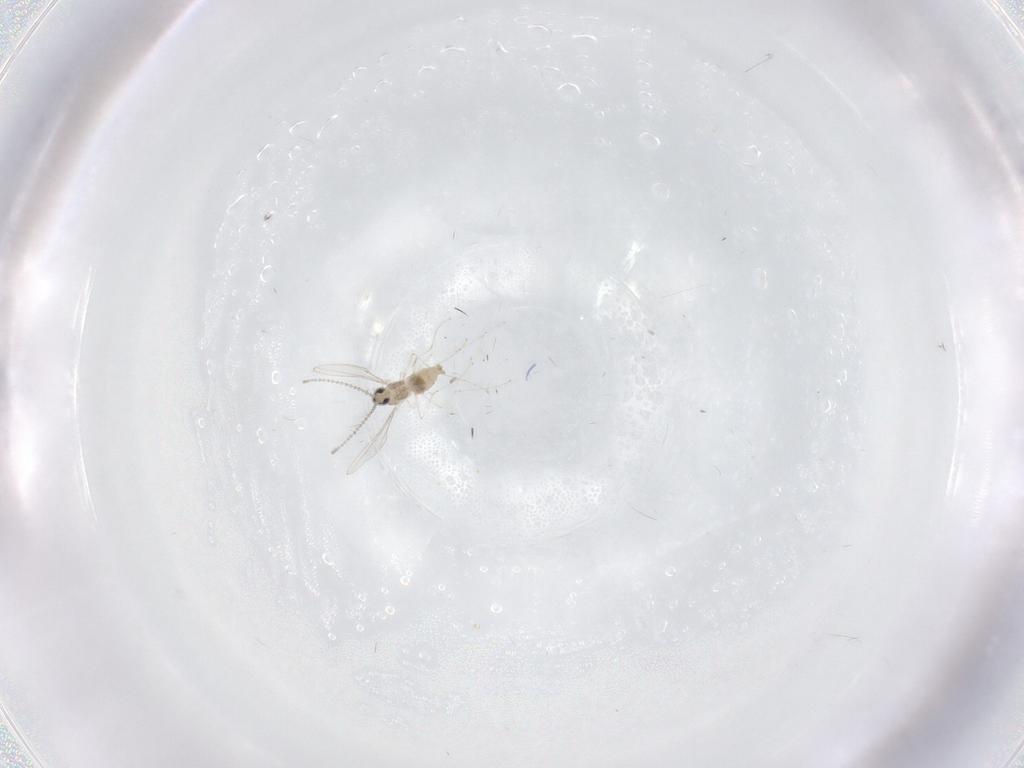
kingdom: Animalia
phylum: Arthropoda
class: Insecta
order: Diptera
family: Cecidomyiidae
